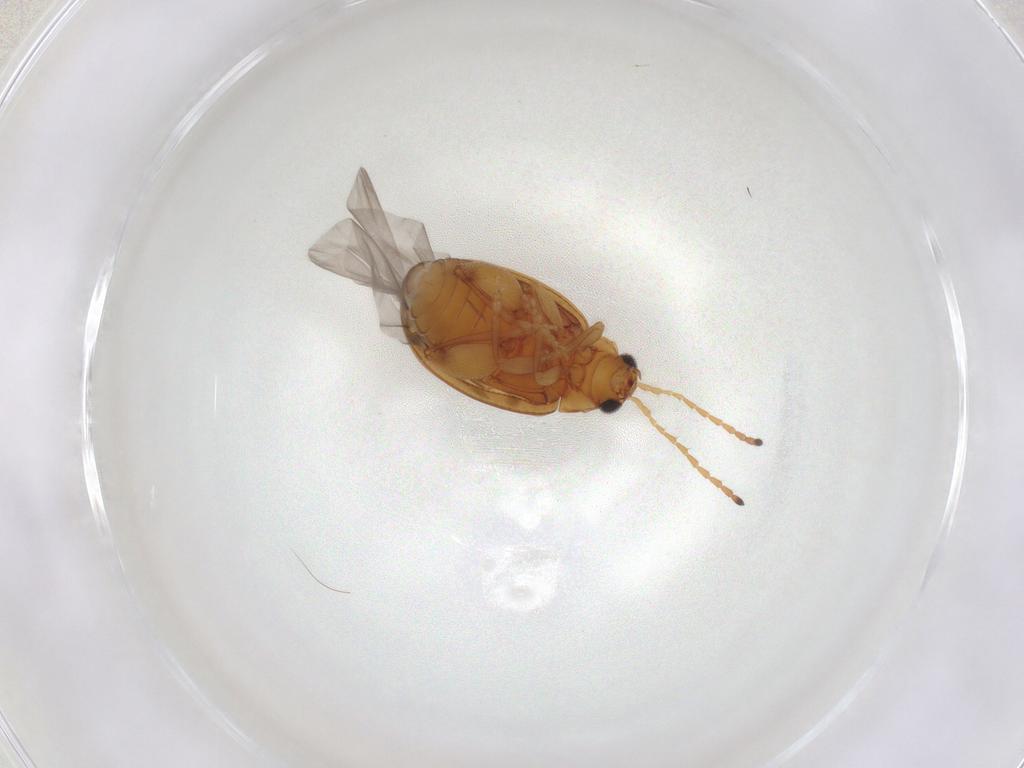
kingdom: Animalia
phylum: Arthropoda
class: Insecta
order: Coleoptera
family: Chrysomelidae
